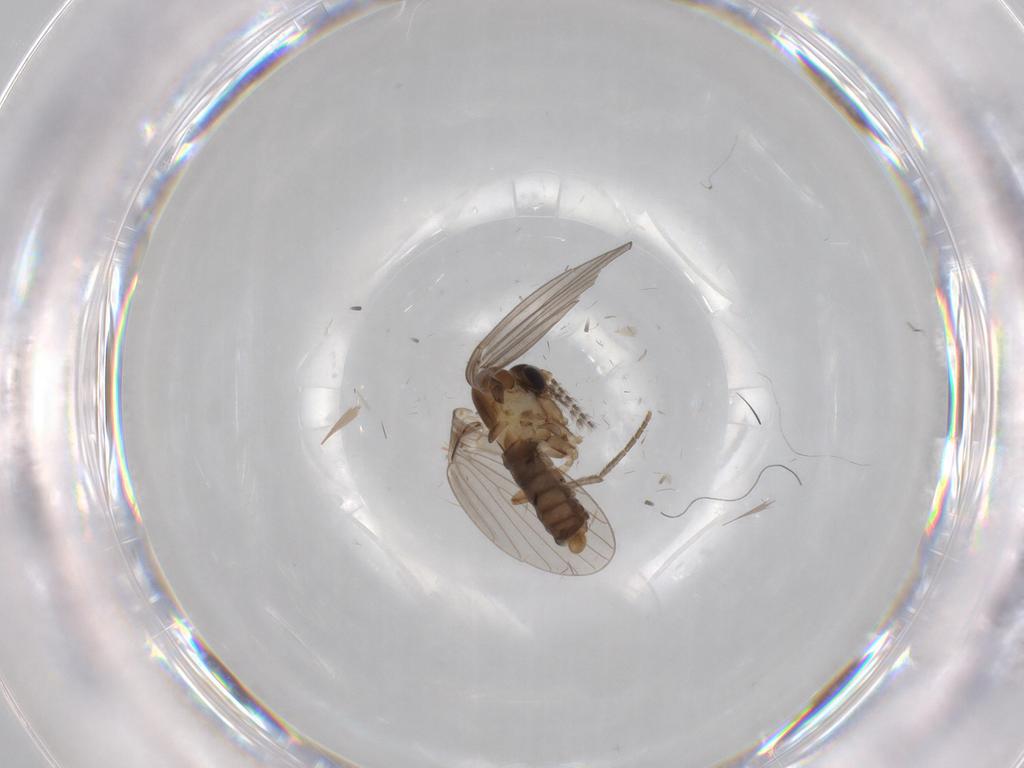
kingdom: Animalia
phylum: Arthropoda
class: Insecta
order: Diptera
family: Psychodidae
